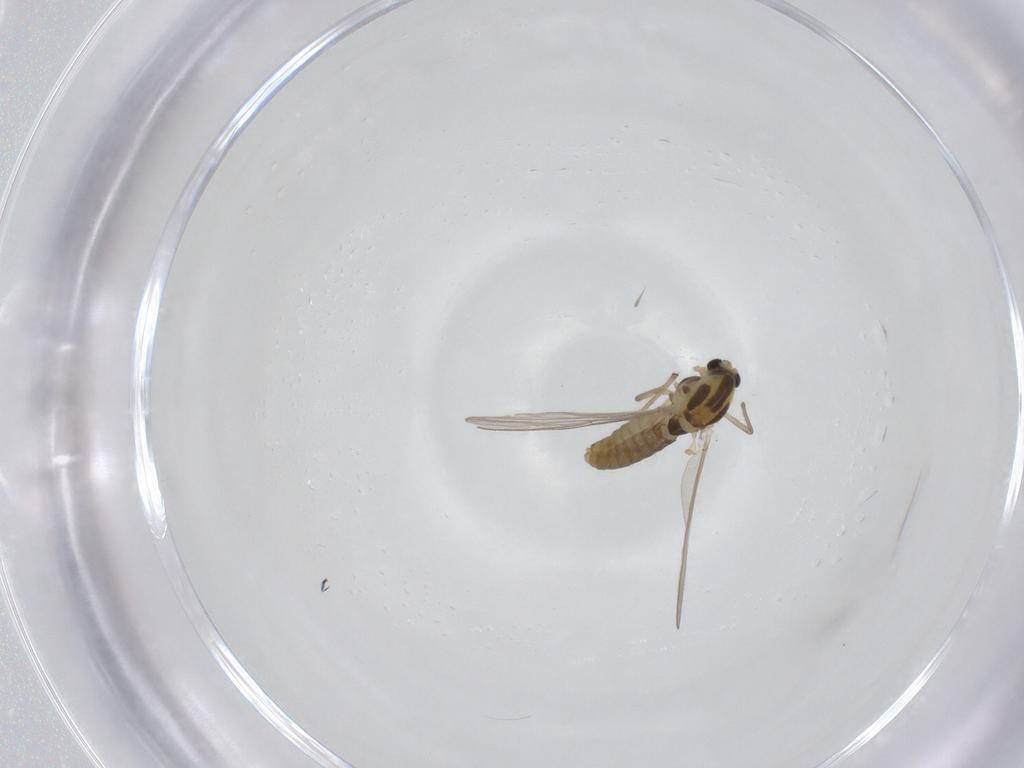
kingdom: Animalia
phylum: Arthropoda
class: Insecta
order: Diptera
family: Chironomidae
